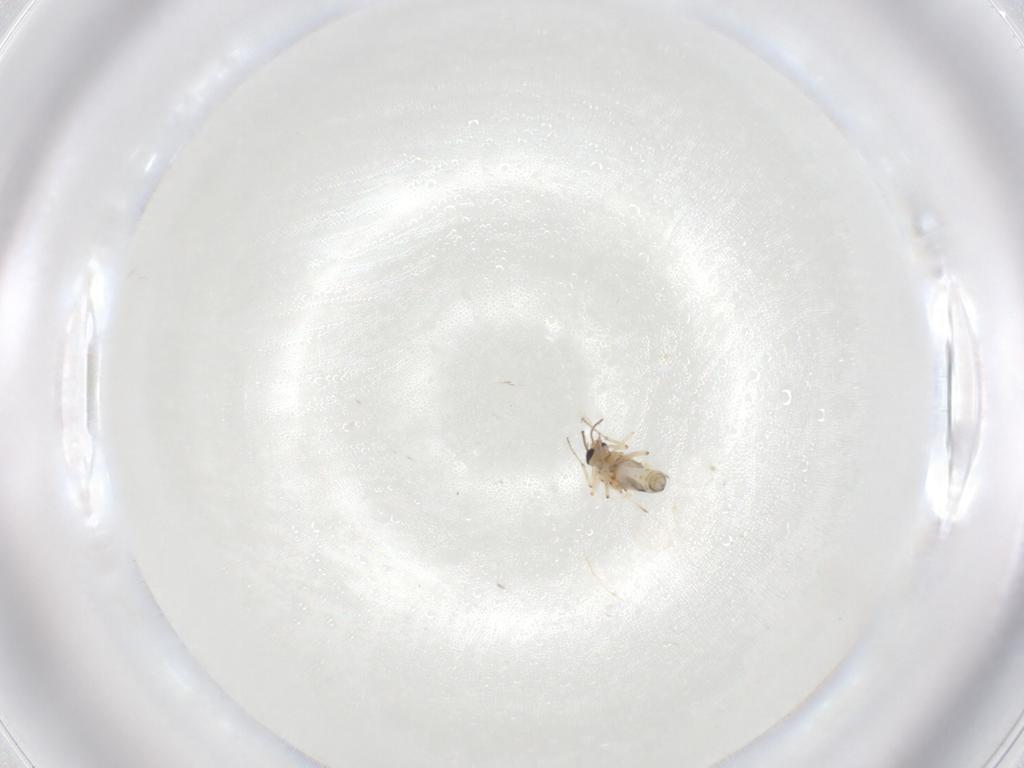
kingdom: Animalia
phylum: Arthropoda
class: Insecta
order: Diptera
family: Ceratopogonidae
